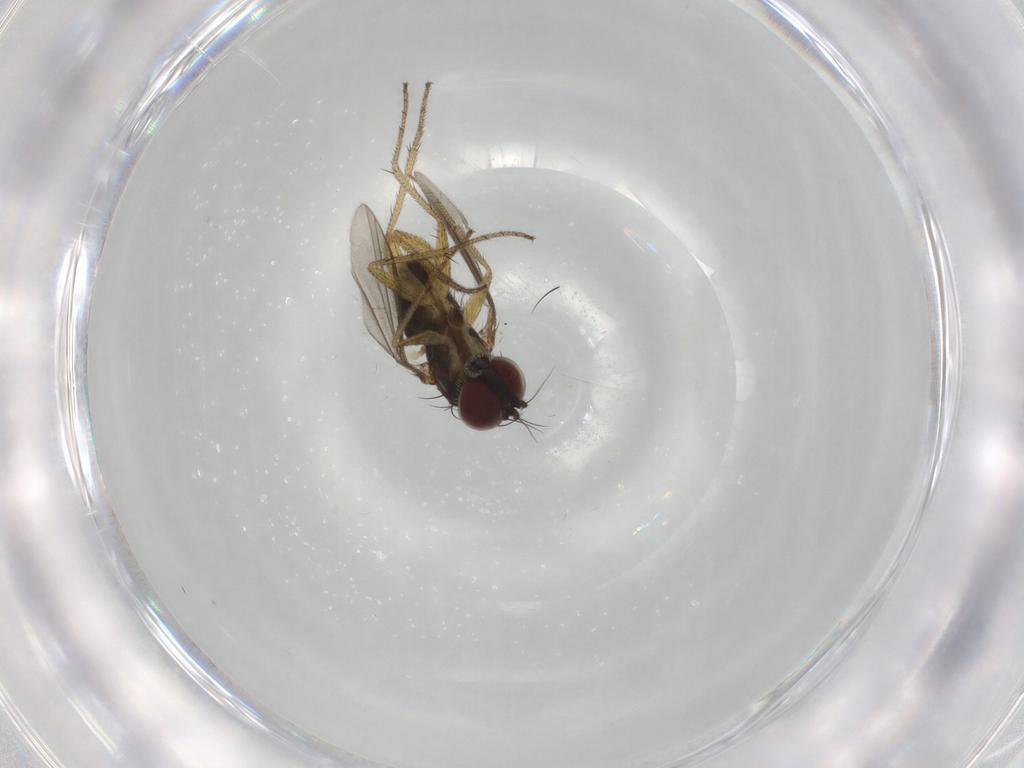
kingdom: Animalia
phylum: Arthropoda
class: Insecta
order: Diptera
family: Dolichopodidae
